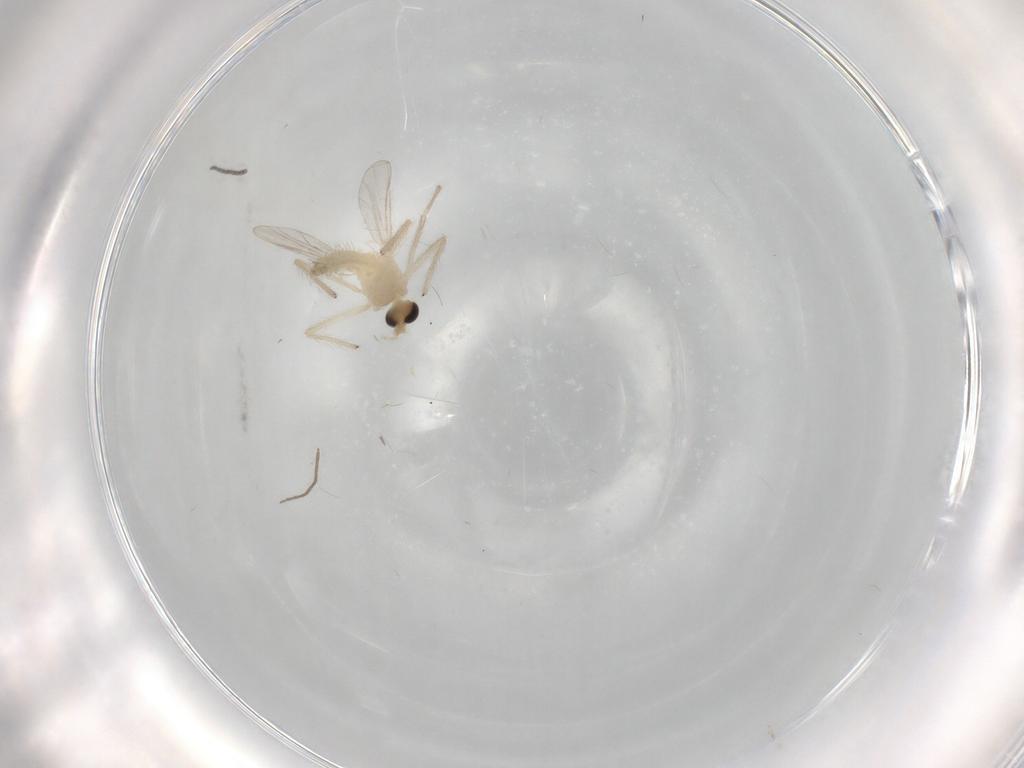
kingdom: Animalia
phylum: Arthropoda
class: Insecta
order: Diptera
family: Chironomidae
